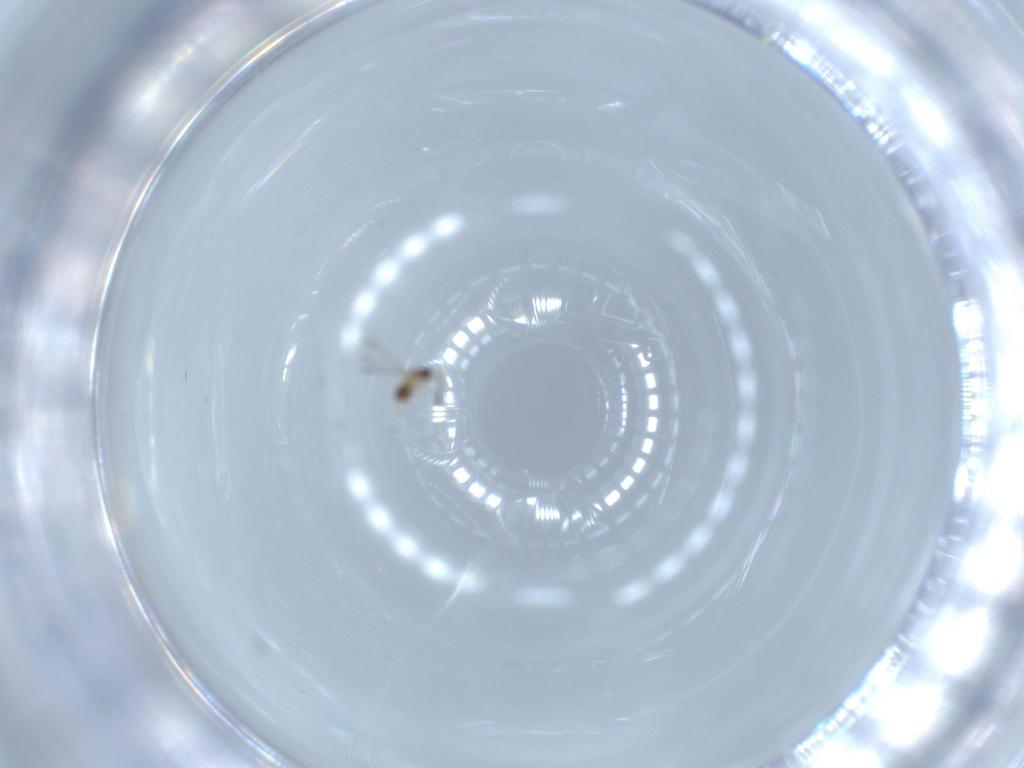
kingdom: Animalia
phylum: Arthropoda
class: Insecta
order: Hymenoptera
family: Mymaridae
